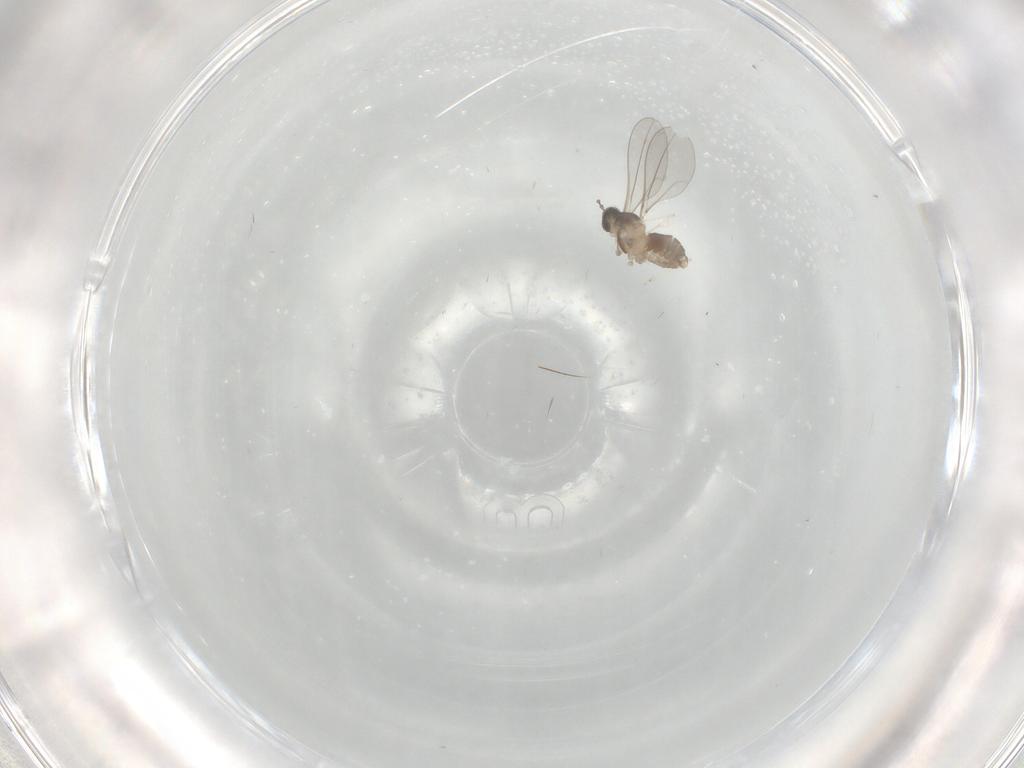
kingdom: Animalia
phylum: Arthropoda
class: Insecta
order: Diptera
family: Cecidomyiidae
